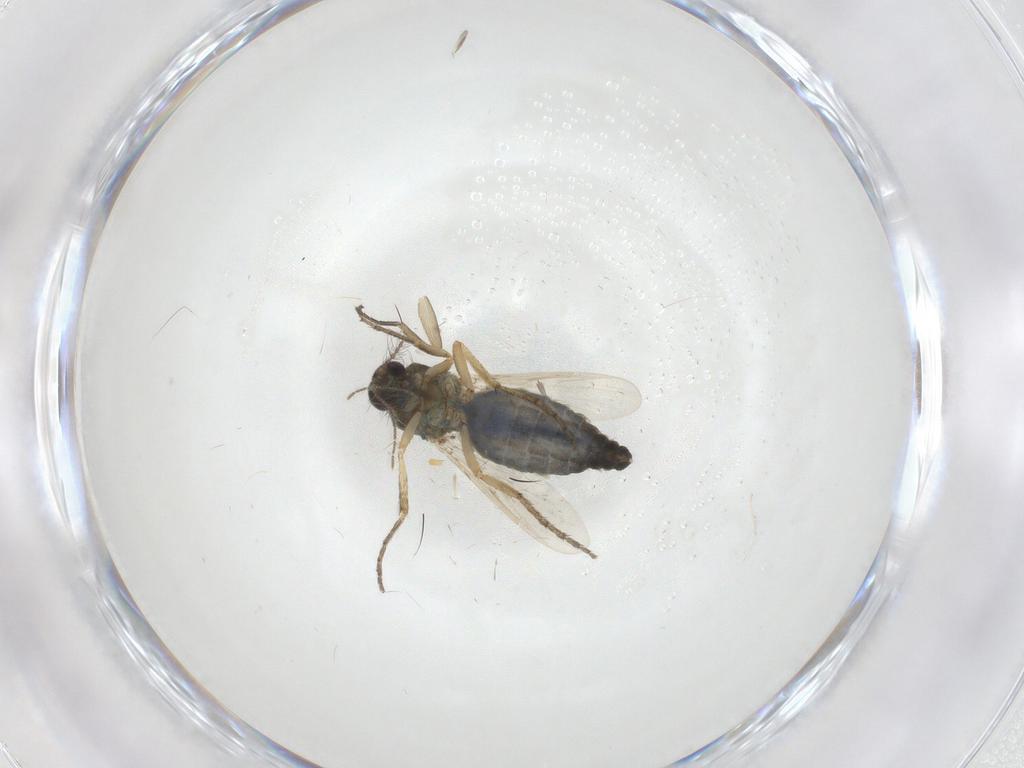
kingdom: Animalia
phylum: Arthropoda
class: Insecta
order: Diptera
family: Ceratopogonidae
